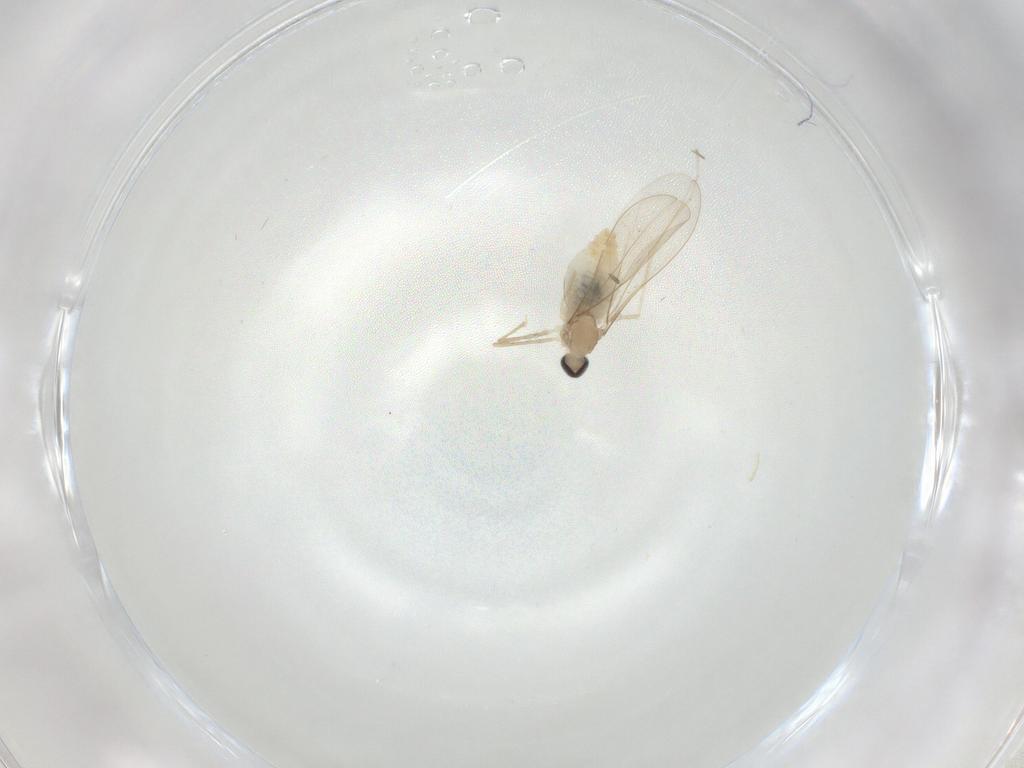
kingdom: Animalia
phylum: Arthropoda
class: Insecta
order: Diptera
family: Cecidomyiidae
